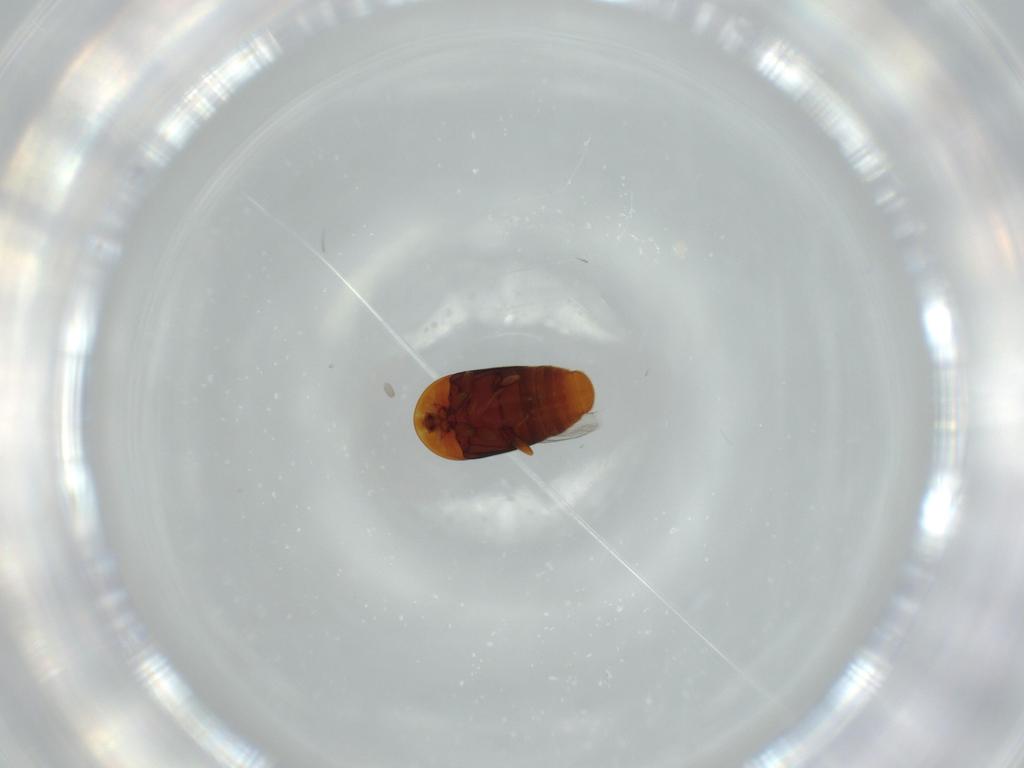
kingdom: Animalia
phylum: Arthropoda
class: Insecta
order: Coleoptera
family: Corylophidae
